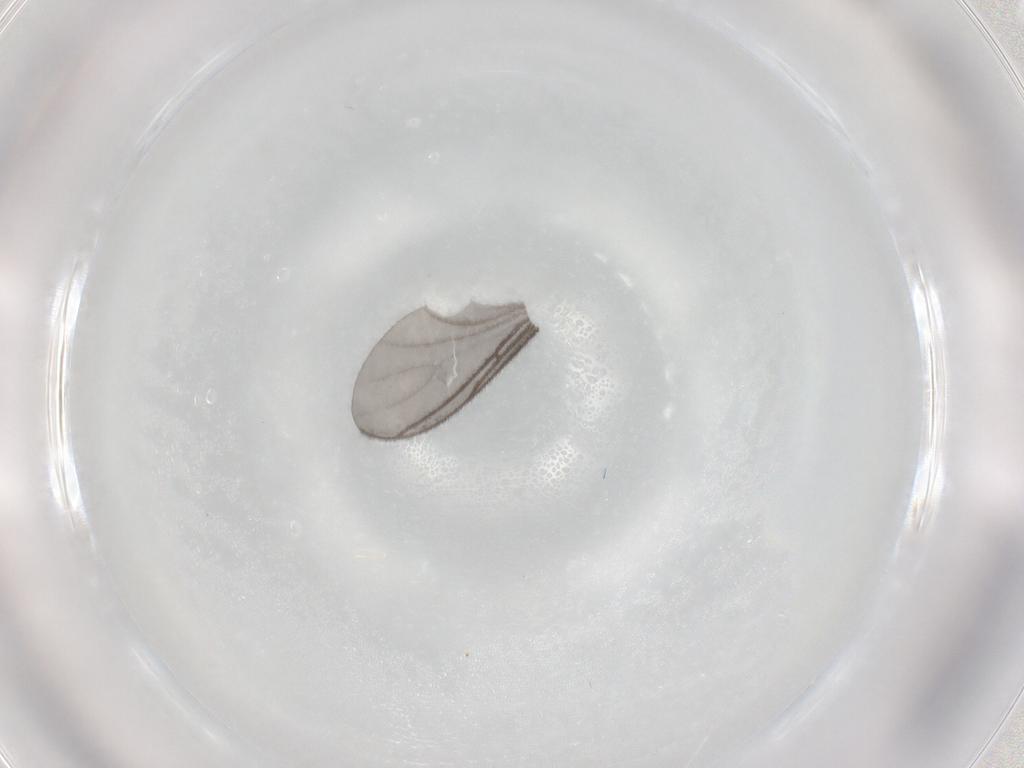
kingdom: Animalia
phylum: Arthropoda
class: Insecta
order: Diptera
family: Sciaridae
